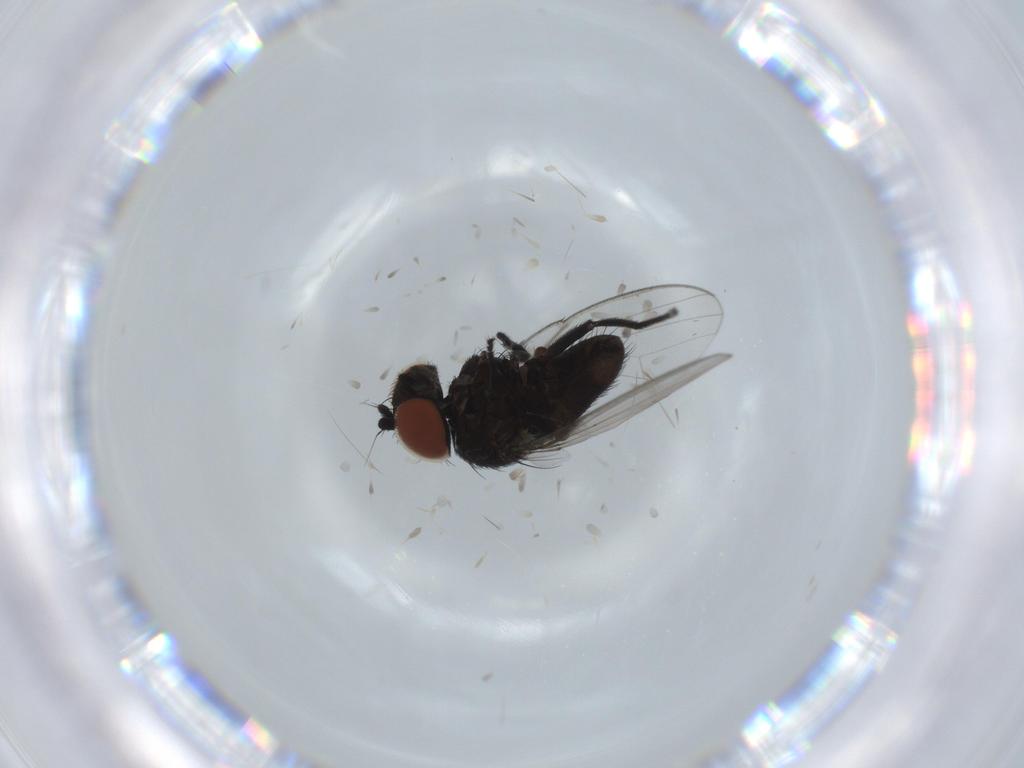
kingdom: Animalia
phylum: Arthropoda
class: Insecta
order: Diptera
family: Milichiidae
